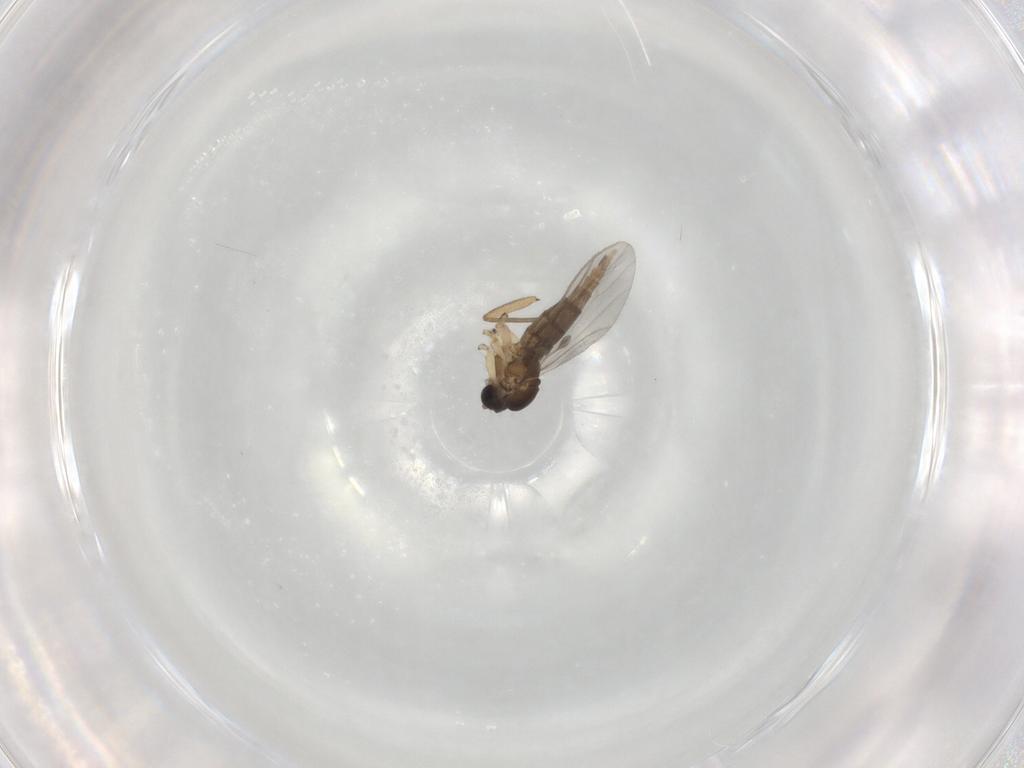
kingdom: Animalia
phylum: Arthropoda
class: Insecta
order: Diptera
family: Sciaridae
